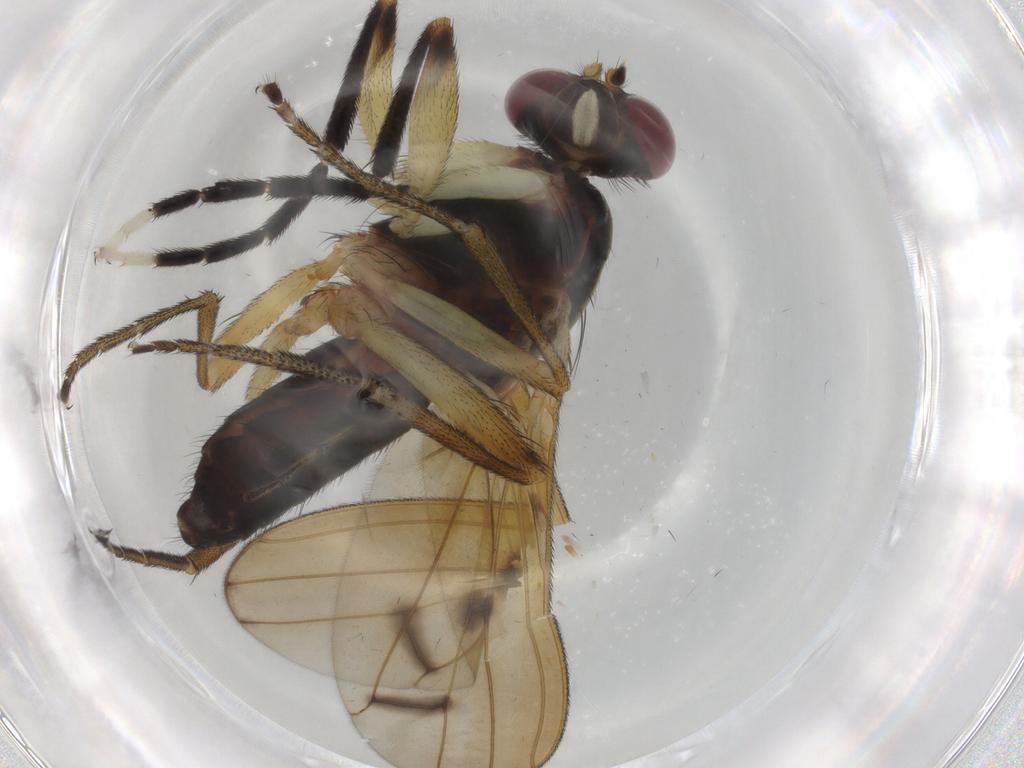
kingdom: Animalia
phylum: Arthropoda
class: Insecta
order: Diptera
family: Sciomyzidae
